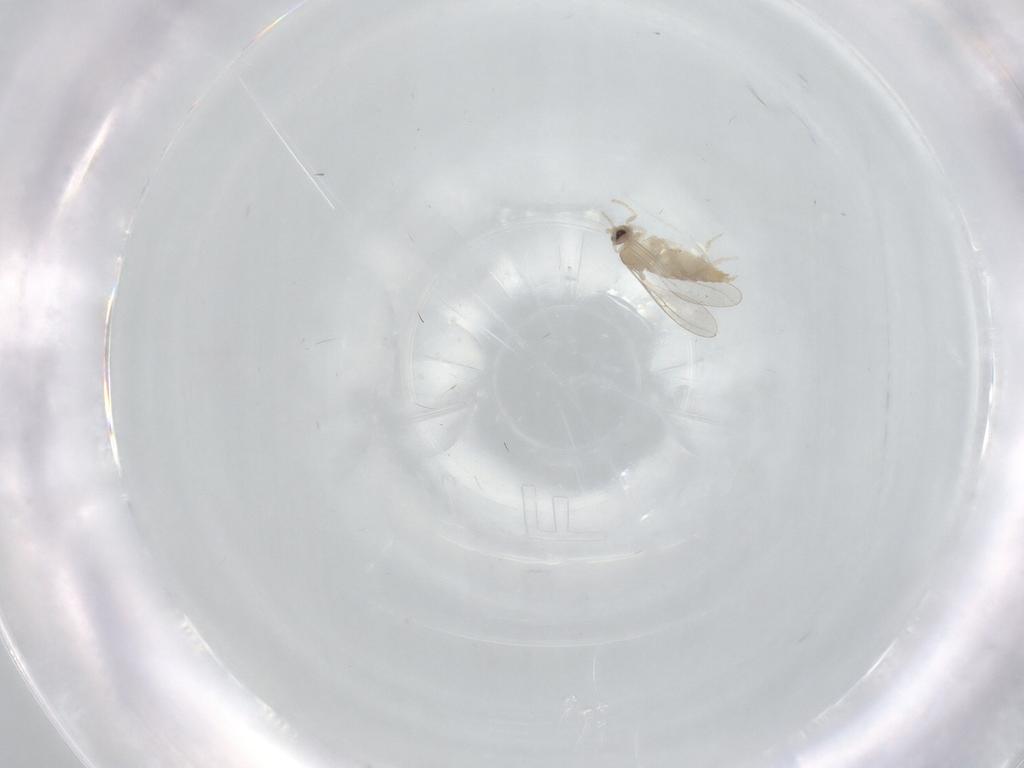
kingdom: Animalia
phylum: Arthropoda
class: Insecta
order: Diptera
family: Cecidomyiidae
